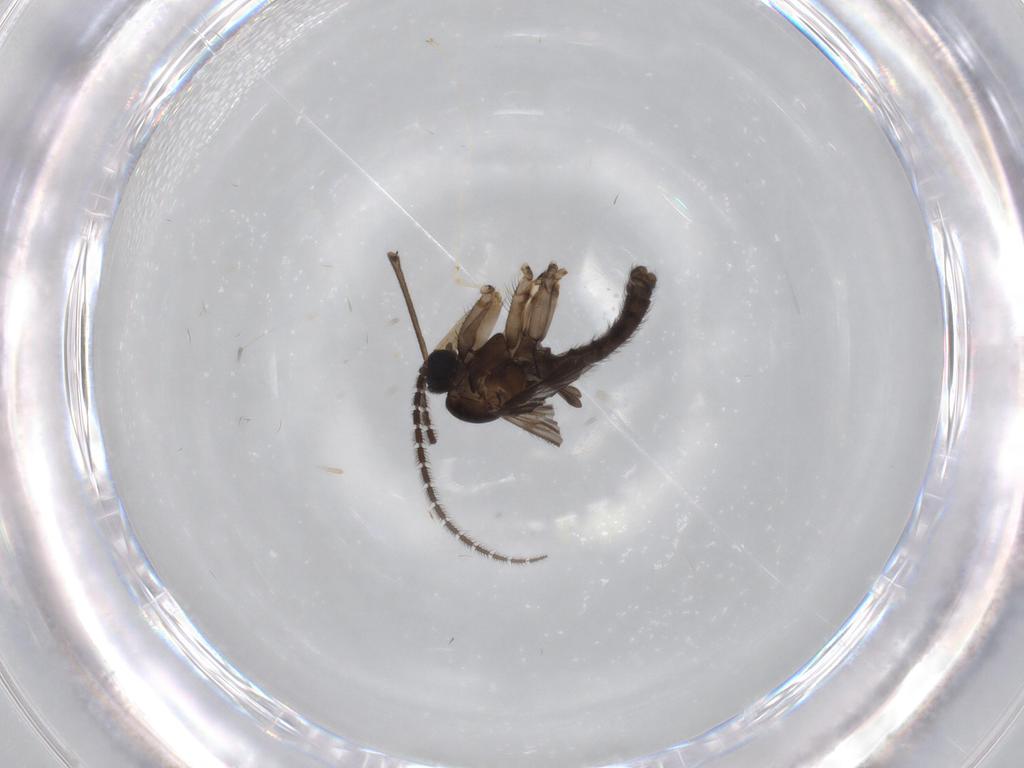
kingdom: Animalia
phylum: Arthropoda
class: Insecta
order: Diptera
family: Sciaridae
